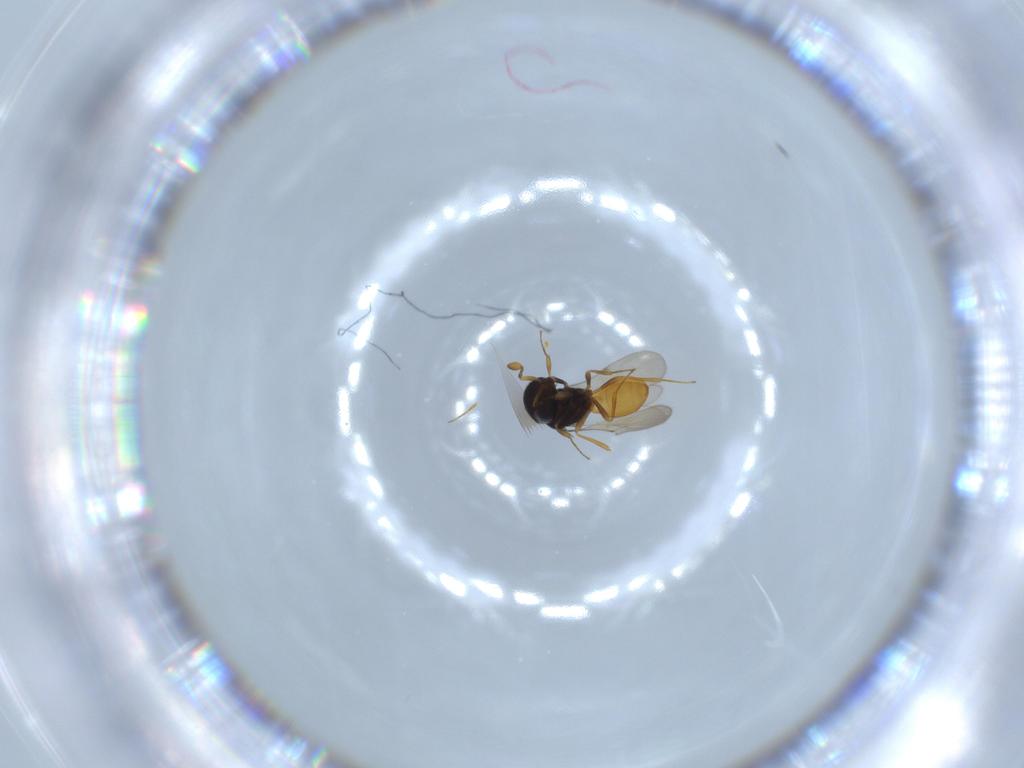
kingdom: Animalia
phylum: Arthropoda
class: Insecta
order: Hymenoptera
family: Scelionidae
